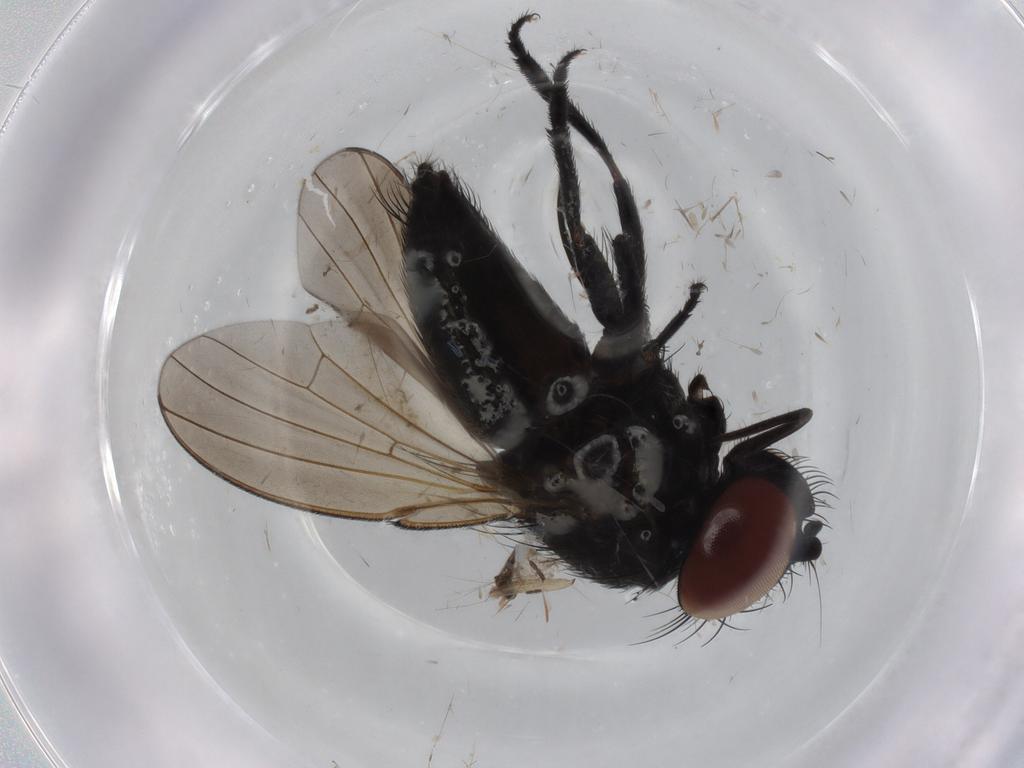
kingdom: Animalia
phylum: Arthropoda
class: Insecta
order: Diptera
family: Milichiidae
